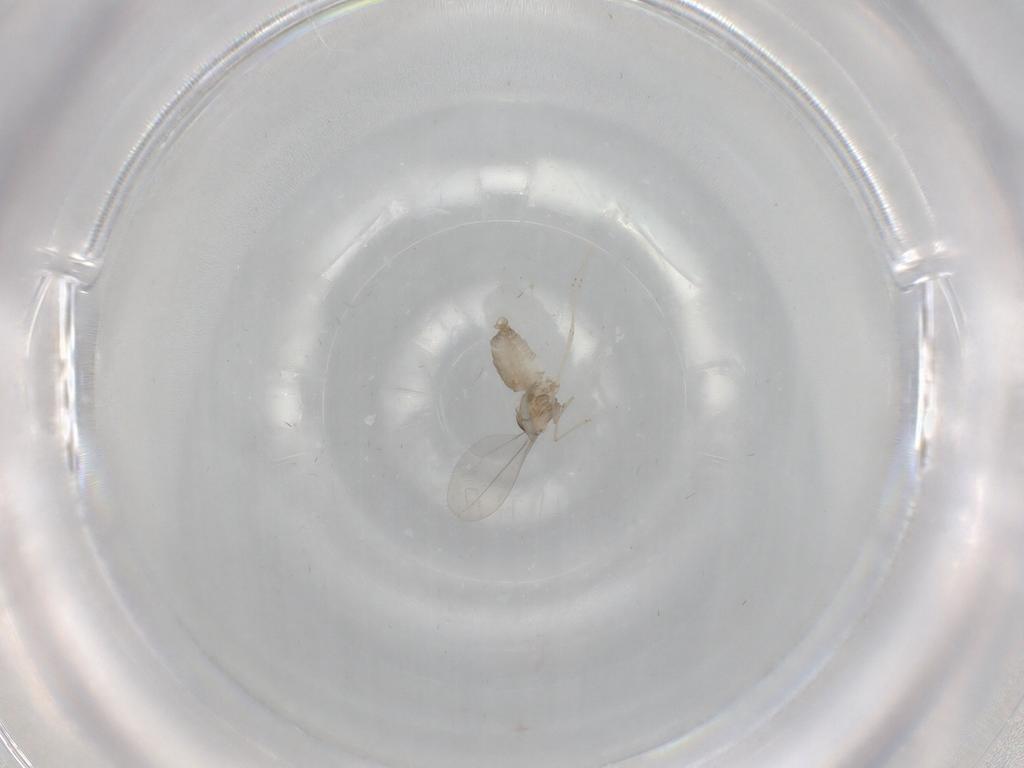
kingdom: Animalia
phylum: Arthropoda
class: Insecta
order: Diptera
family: Cecidomyiidae
